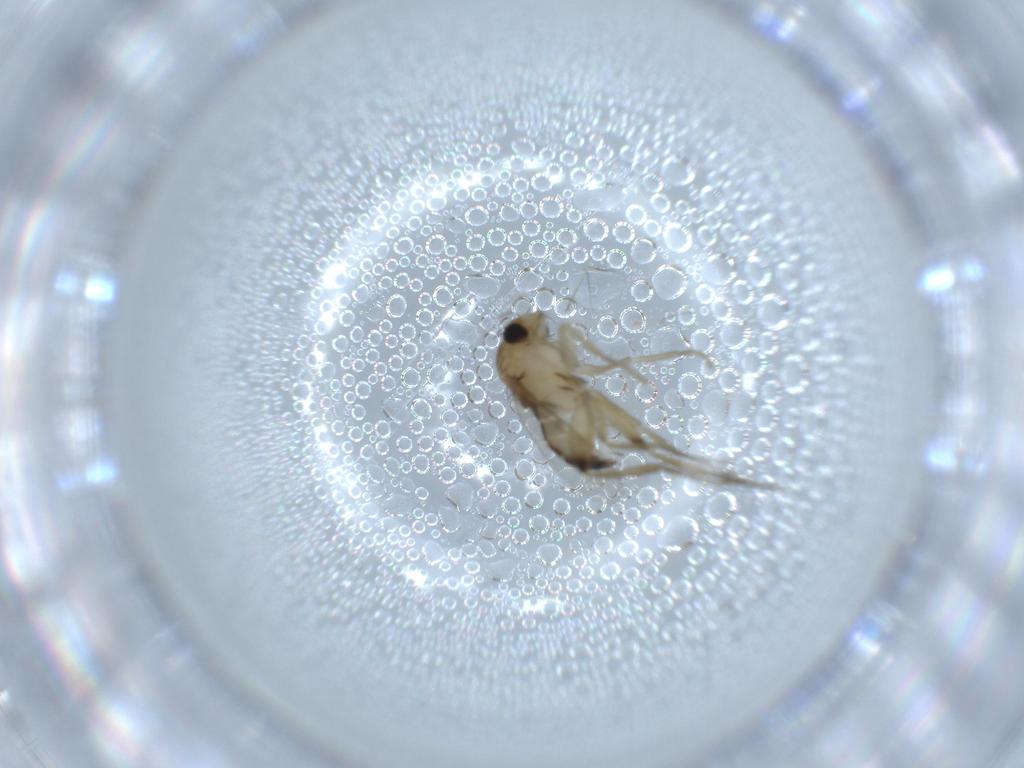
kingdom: Animalia
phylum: Arthropoda
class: Insecta
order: Diptera
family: Phoridae
